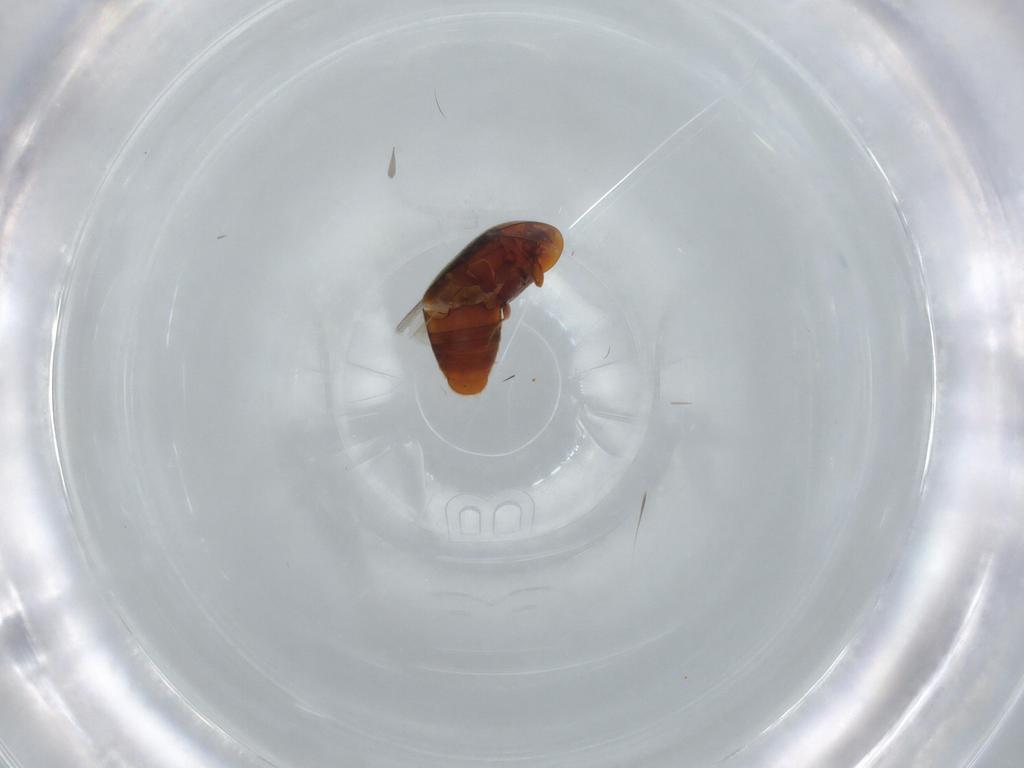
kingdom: Animalia
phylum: Arthropoda
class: Insecta
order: Coleoptera
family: Corylophidae
